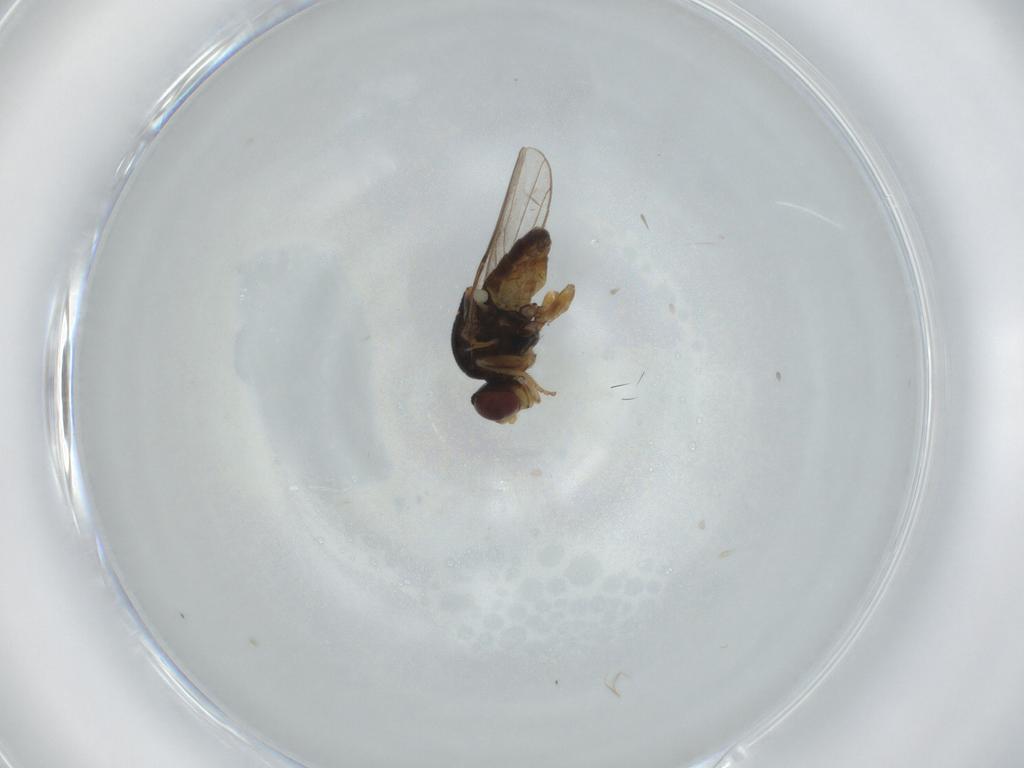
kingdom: Animalia
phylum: Arthropoda
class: Insecta
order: Diptera
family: Chloropidae
